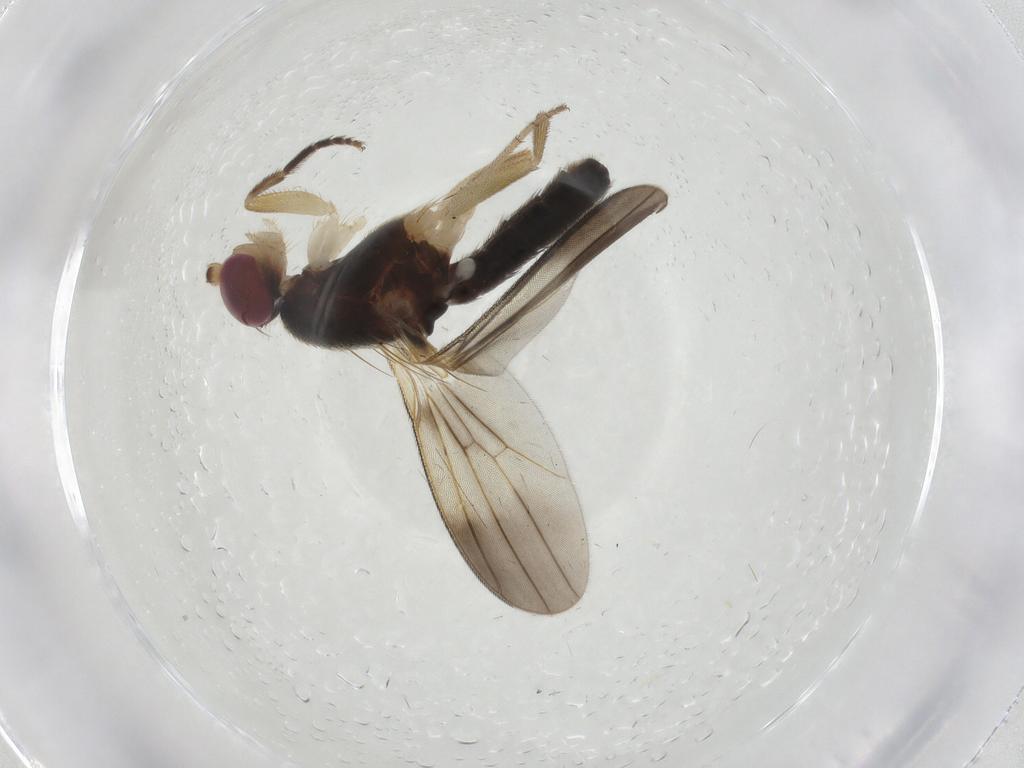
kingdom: Animalia
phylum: Arthropoda
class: Insecta
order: Diptera
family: Clusiidae
